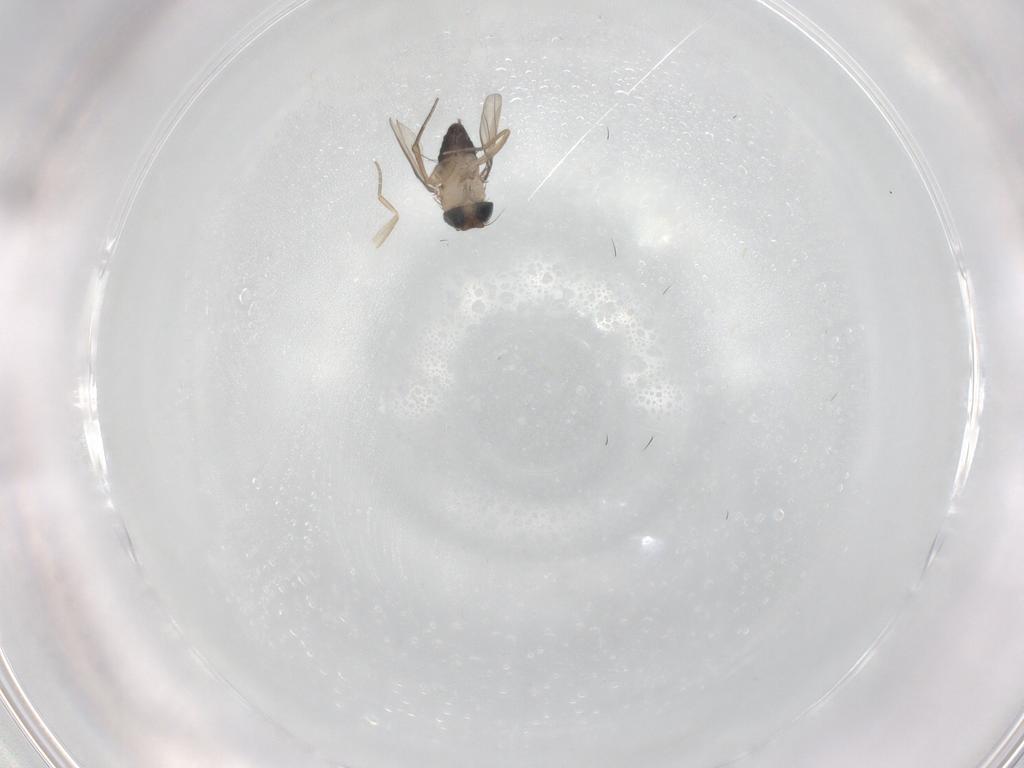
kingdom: Animalia
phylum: Arthropoda
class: Insecta
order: Diptera
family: Phoridae
